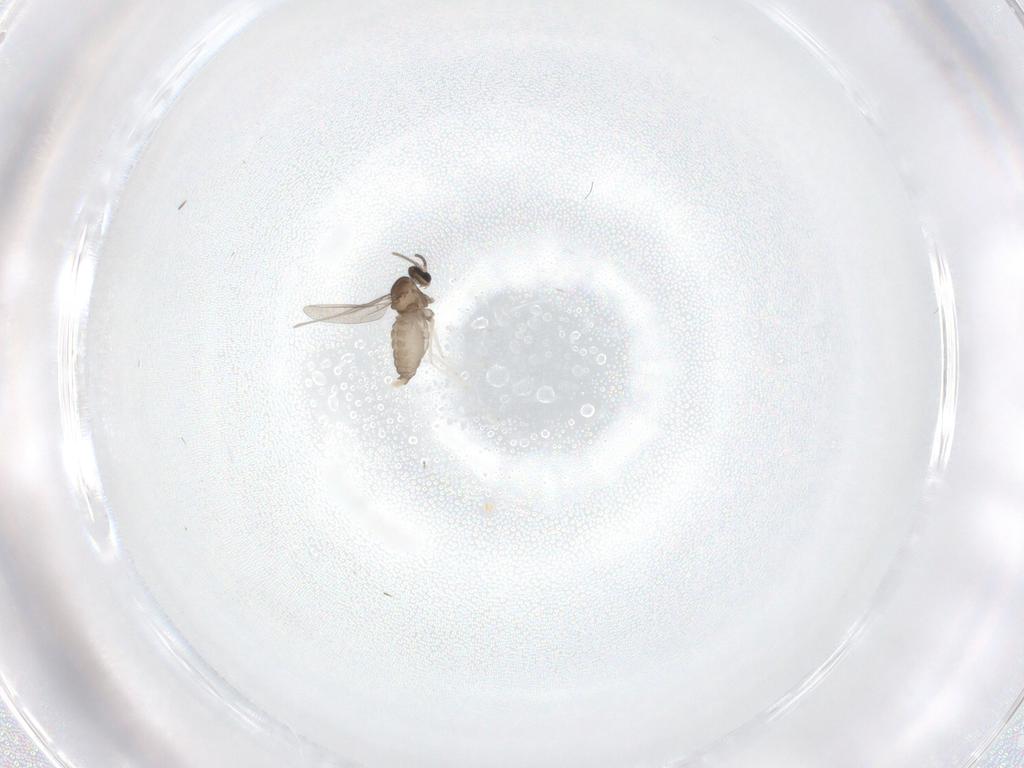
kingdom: Animalia
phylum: Arthropoda
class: Insecta
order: Diptera
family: Cecidomyiidae
